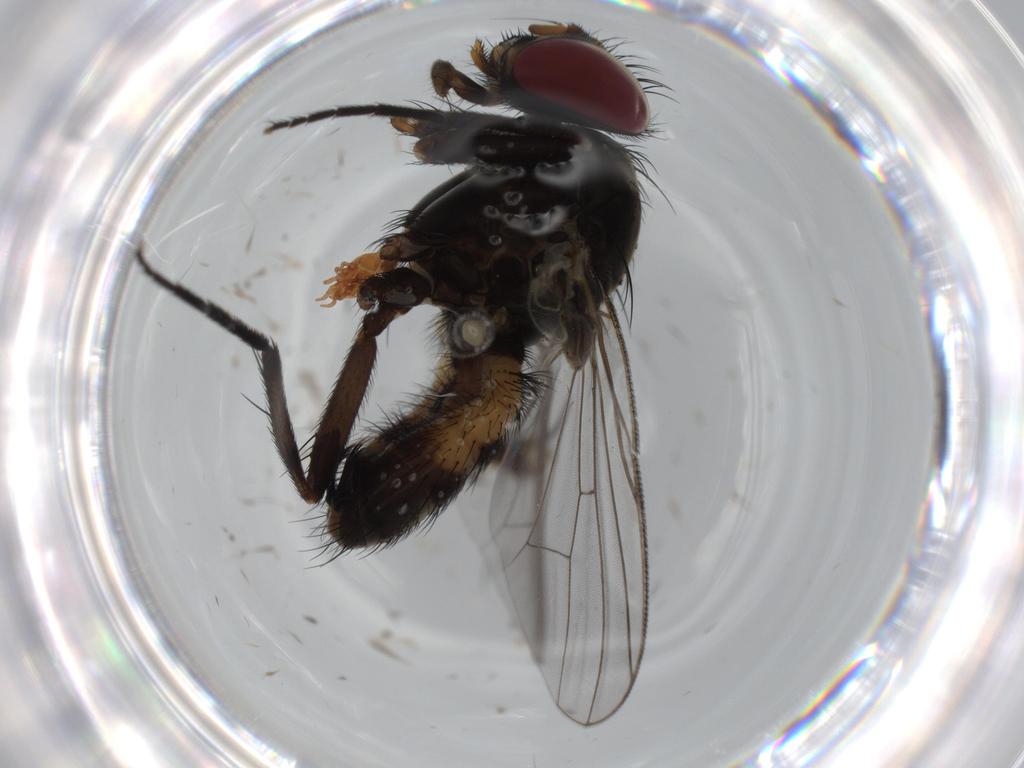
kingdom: Animalia
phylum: Arthropoda
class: Insecta
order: Diptera
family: Fannia
